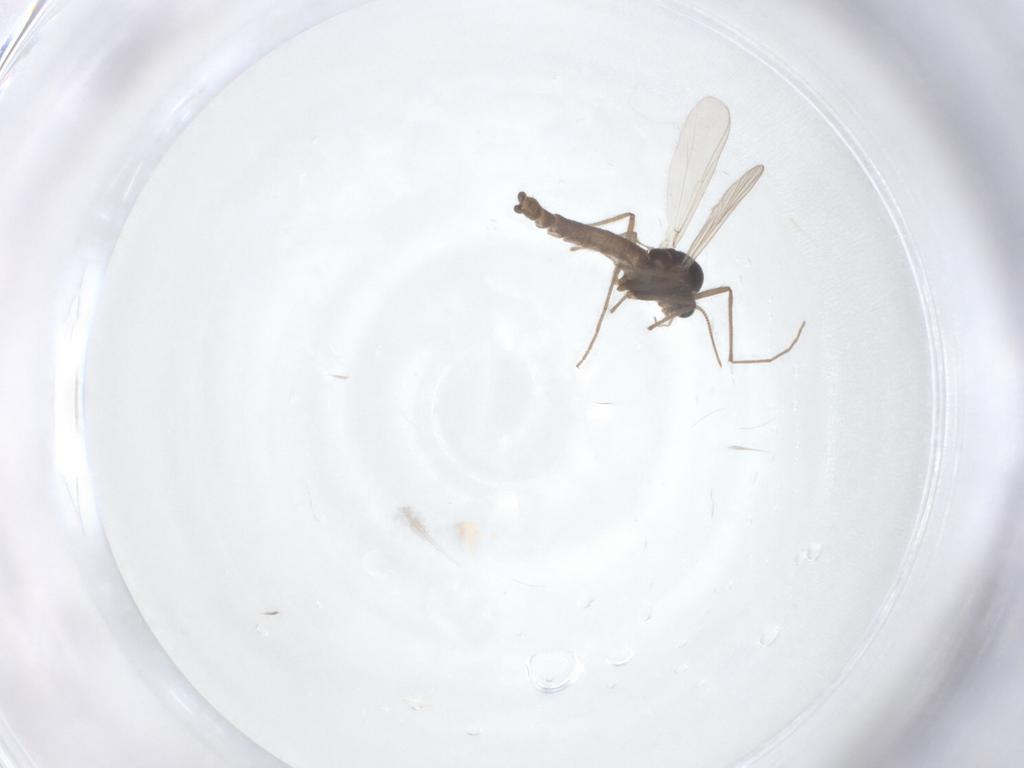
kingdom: Animalia
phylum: Arthropoda
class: Insecta
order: Diptera
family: Chironomidae
